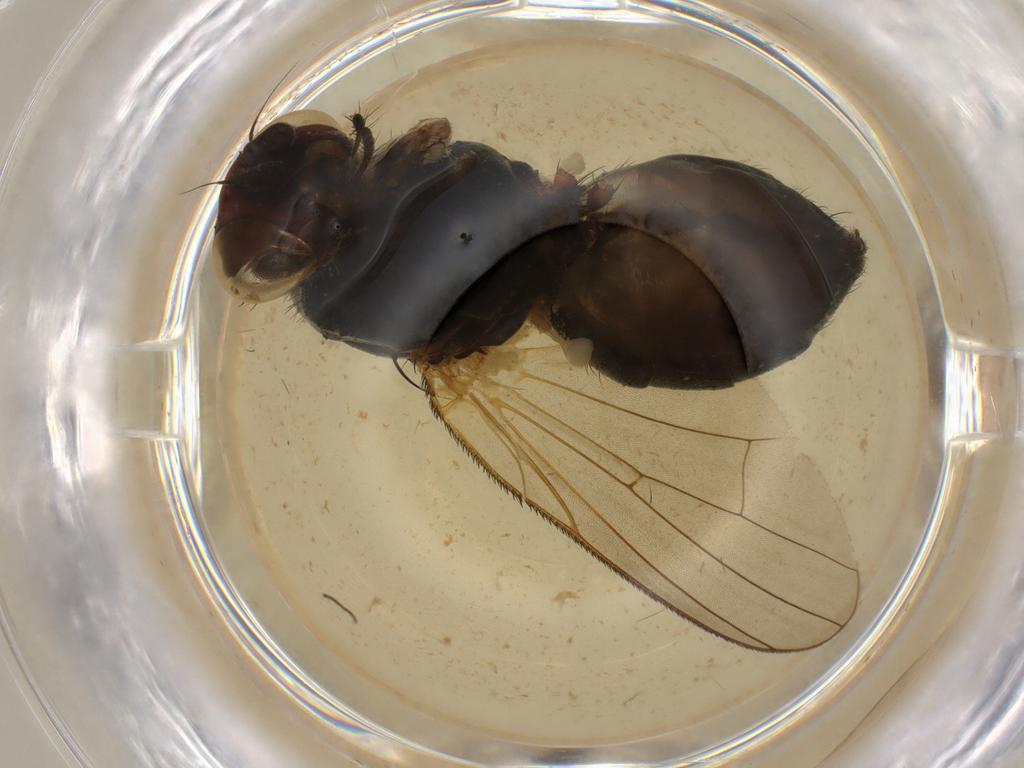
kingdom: Animalia
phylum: Arthropoda
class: Insecta
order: Diptera
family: Anthomyiidae
